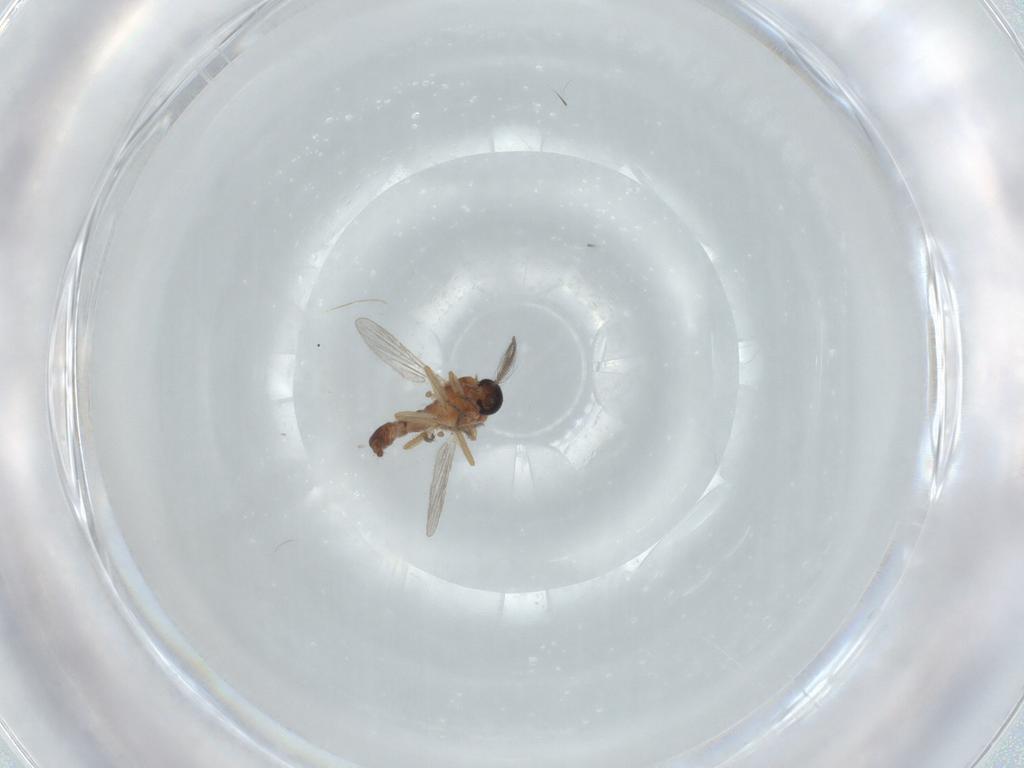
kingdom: Animalia
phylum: Arthropoda
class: Insecta
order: Diptera
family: Ceratopogonidae
